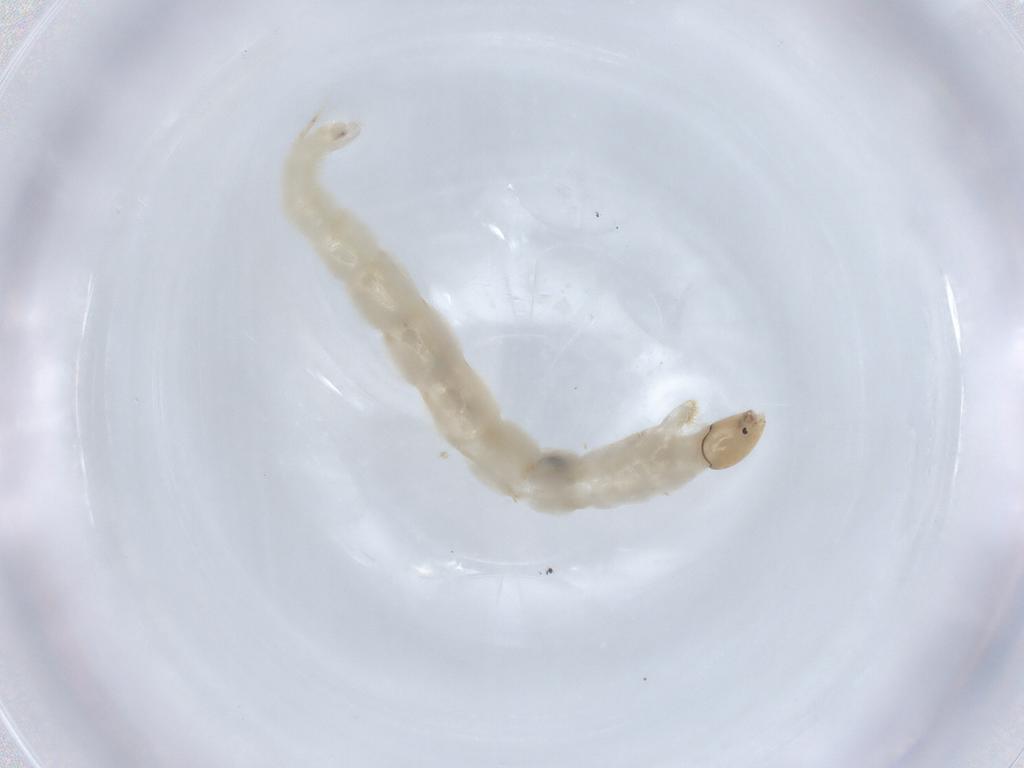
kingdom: Animalia
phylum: Arthropoda
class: Insecta
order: Diptera
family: Chironomidae
